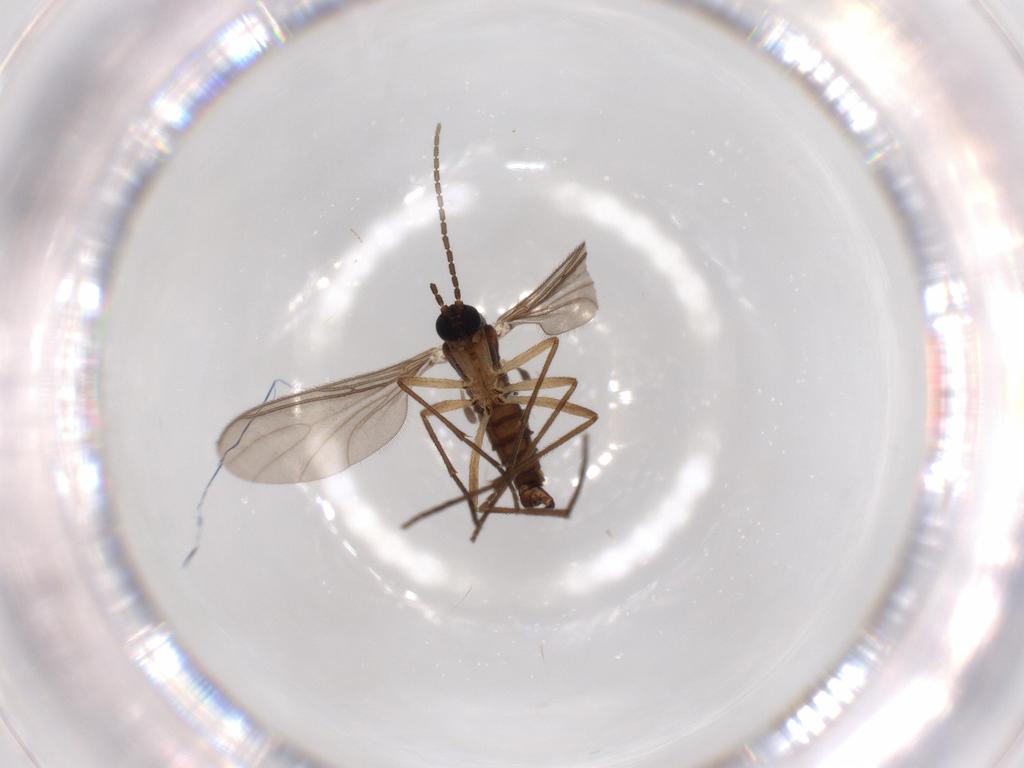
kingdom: Animalia
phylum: Arthropoda
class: Insecta
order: Diptera
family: Sciaridae
